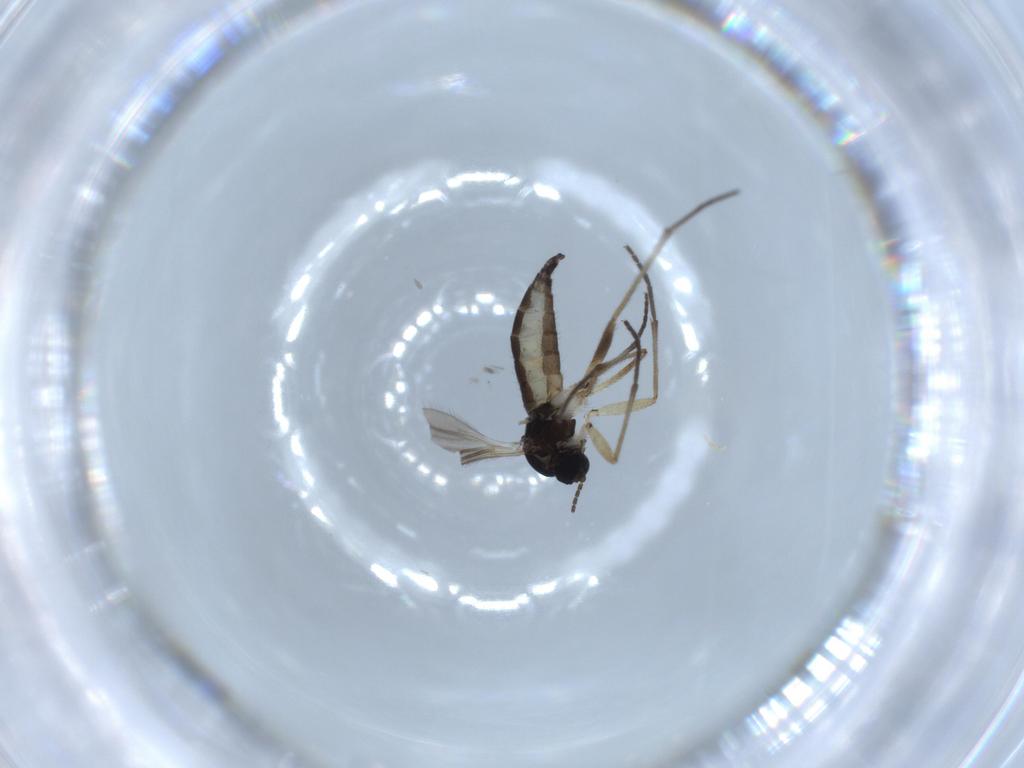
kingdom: Animalia
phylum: Arthropoda
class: Insecta
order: Diptera
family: Sciaridae
